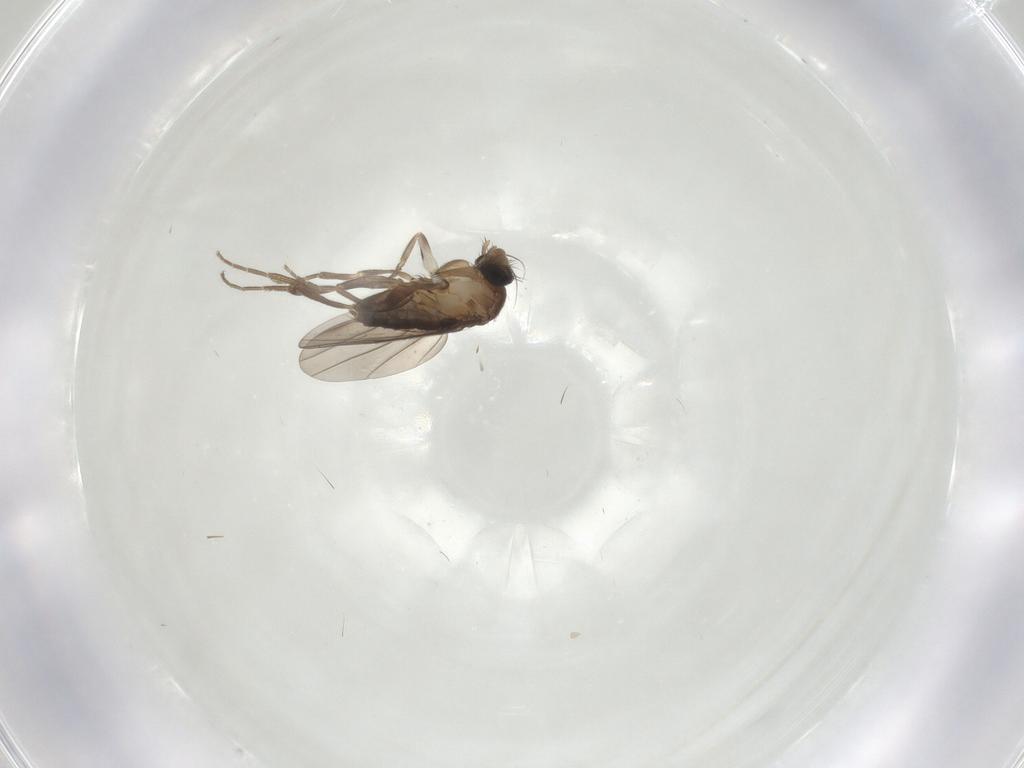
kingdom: Animalia
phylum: Arthropoda
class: Insecta
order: Diptera
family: Phoridae
